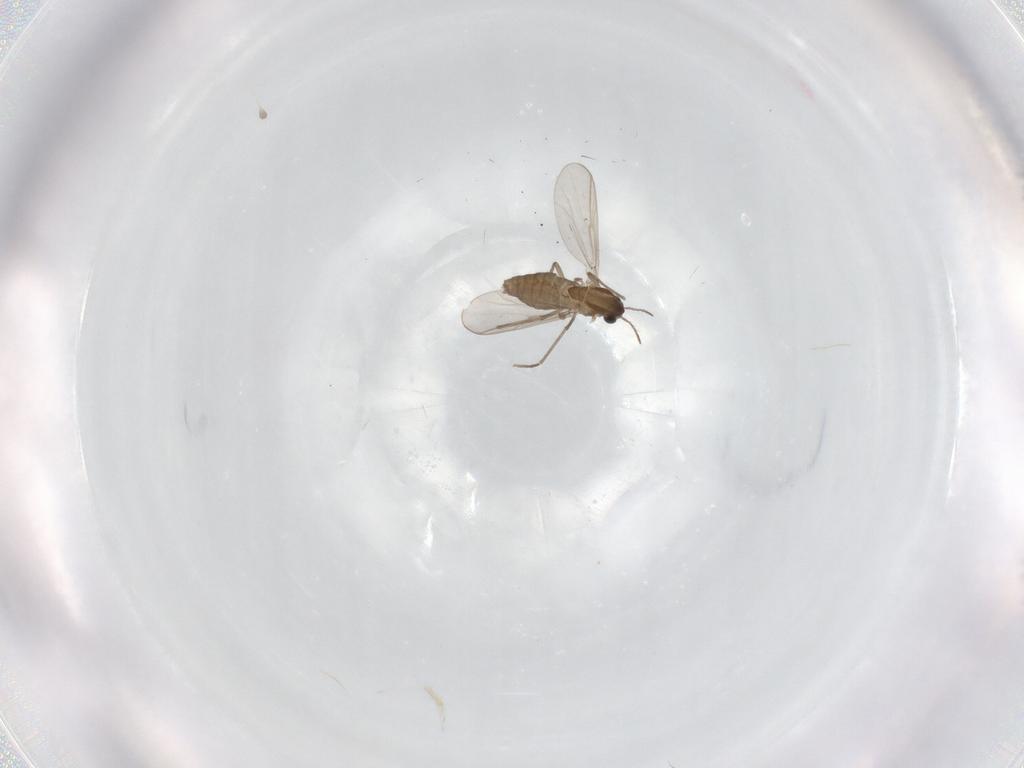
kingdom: Animalia
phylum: Arthropoda
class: Insecta
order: Diptera
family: Chironomidae
